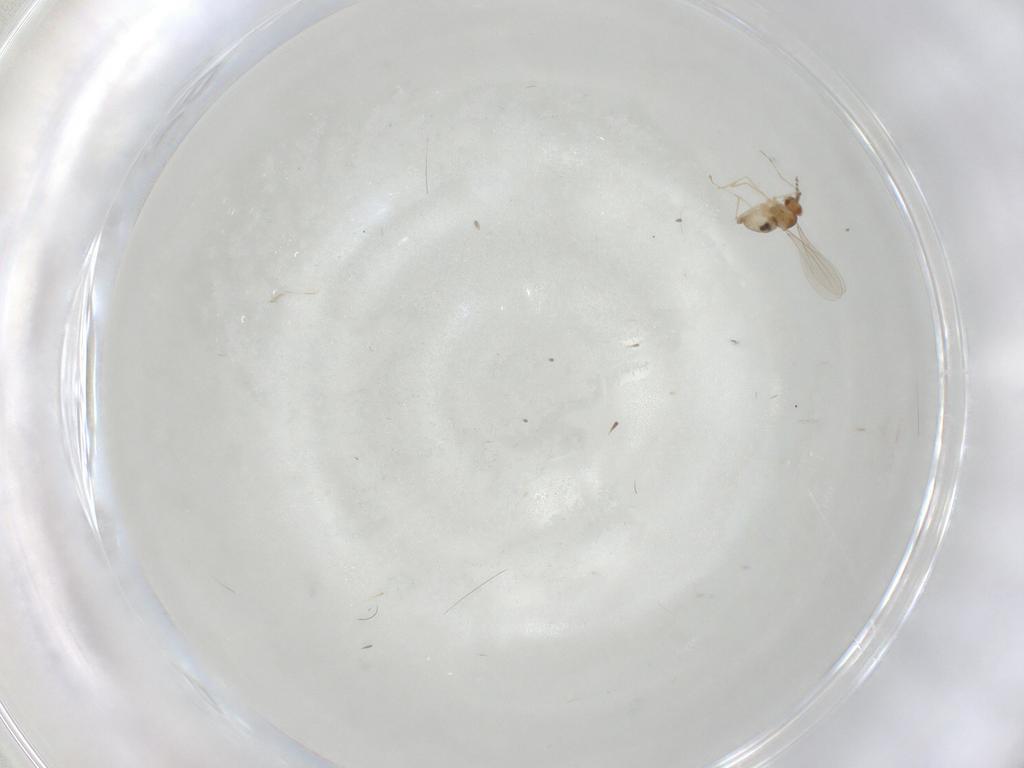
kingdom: Animalia
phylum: Arthropoda
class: Insecta
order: Diptera
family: Cecidomyiidae
